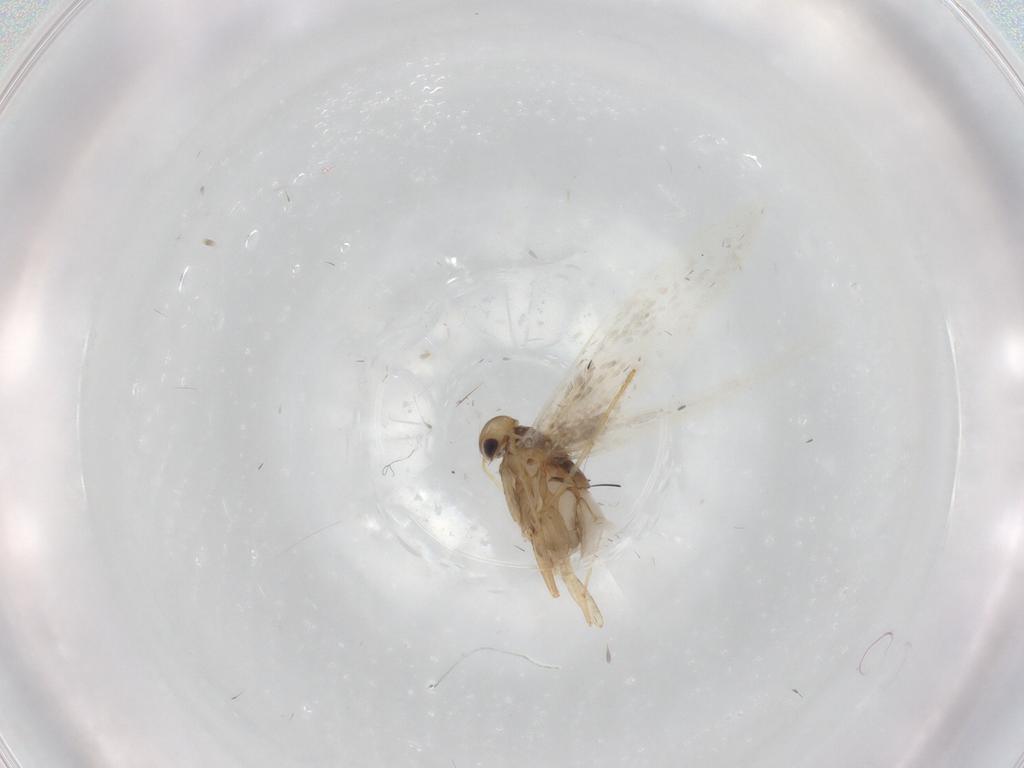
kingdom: Animalia
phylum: Arthropoda
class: Insecta
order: Lepidoptera
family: Gracillariidae
